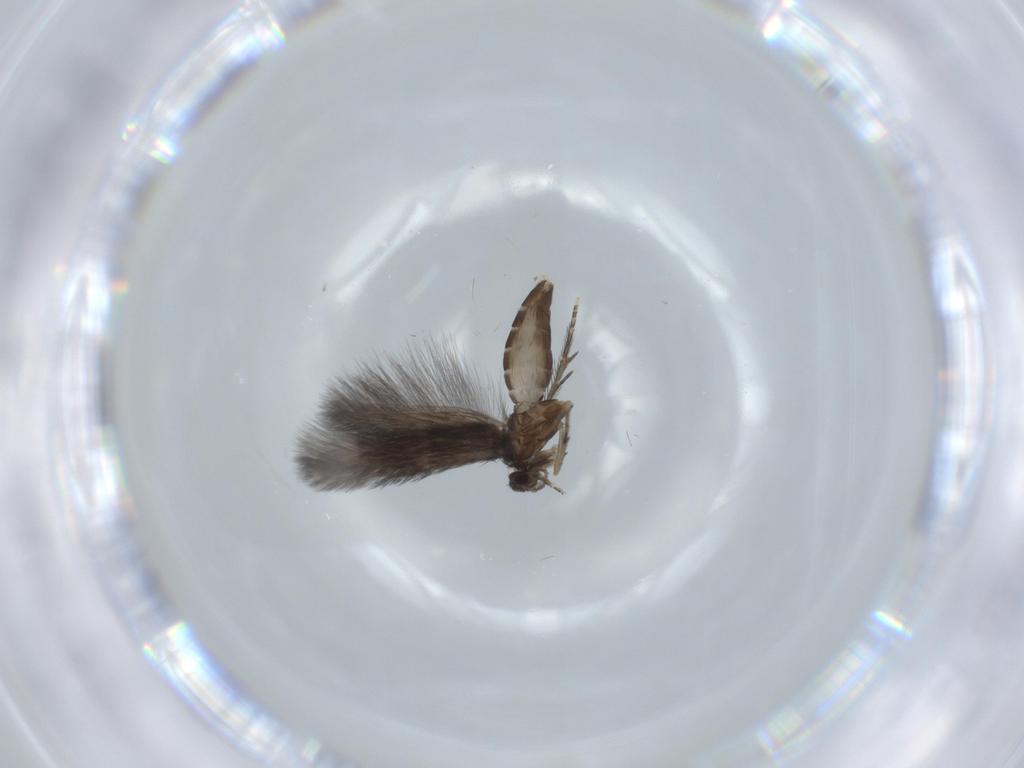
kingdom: Animalia
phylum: Arthropoda
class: Insecta
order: Trichoptera
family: Hydroptilidae
